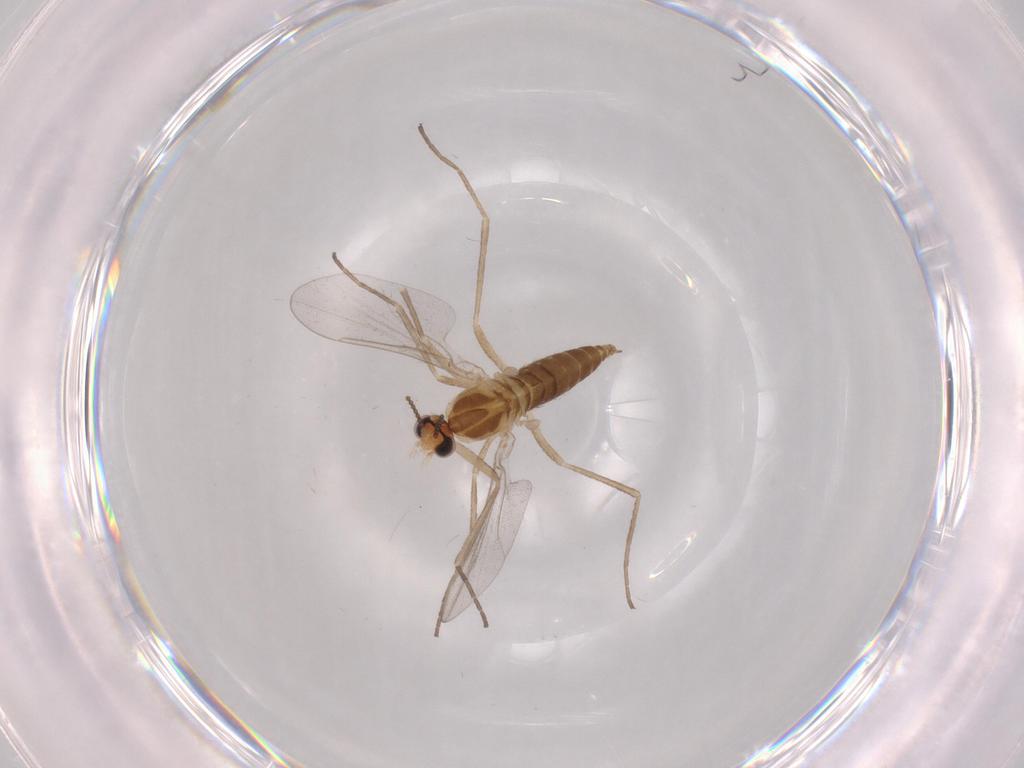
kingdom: Animalia
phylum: Arthropoda
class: Insecta
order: Diptera
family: Cecidomyiidae
